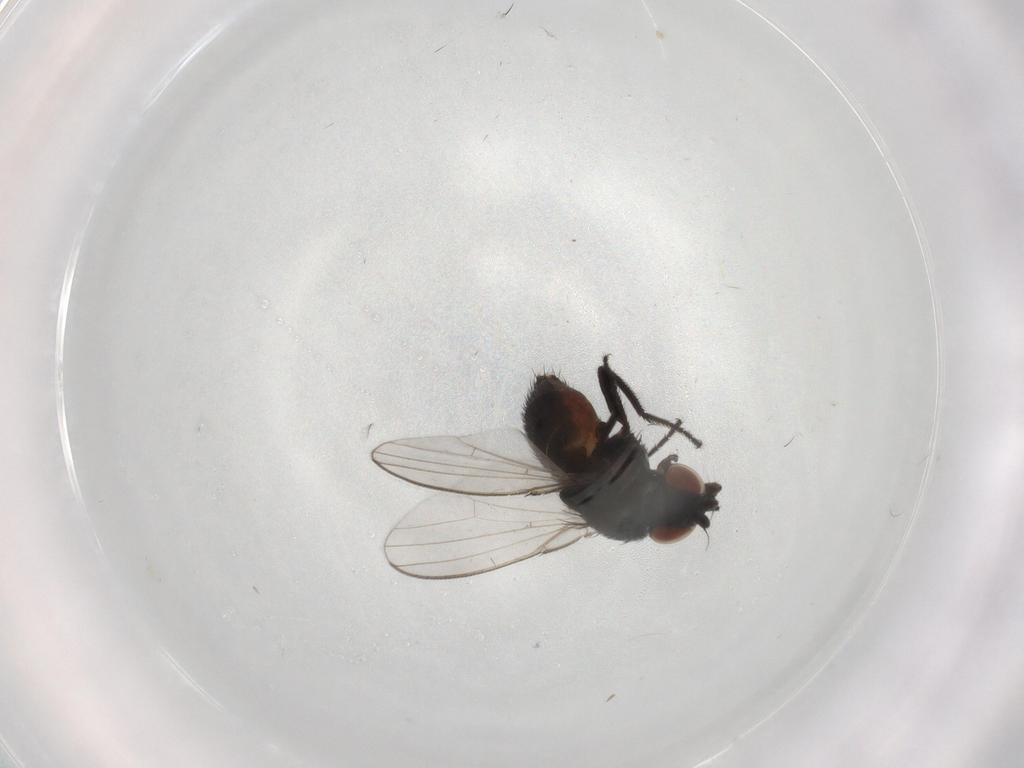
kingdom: Animalia
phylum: Arthropoda
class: Insecta
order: Diptera
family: Milichiidae
